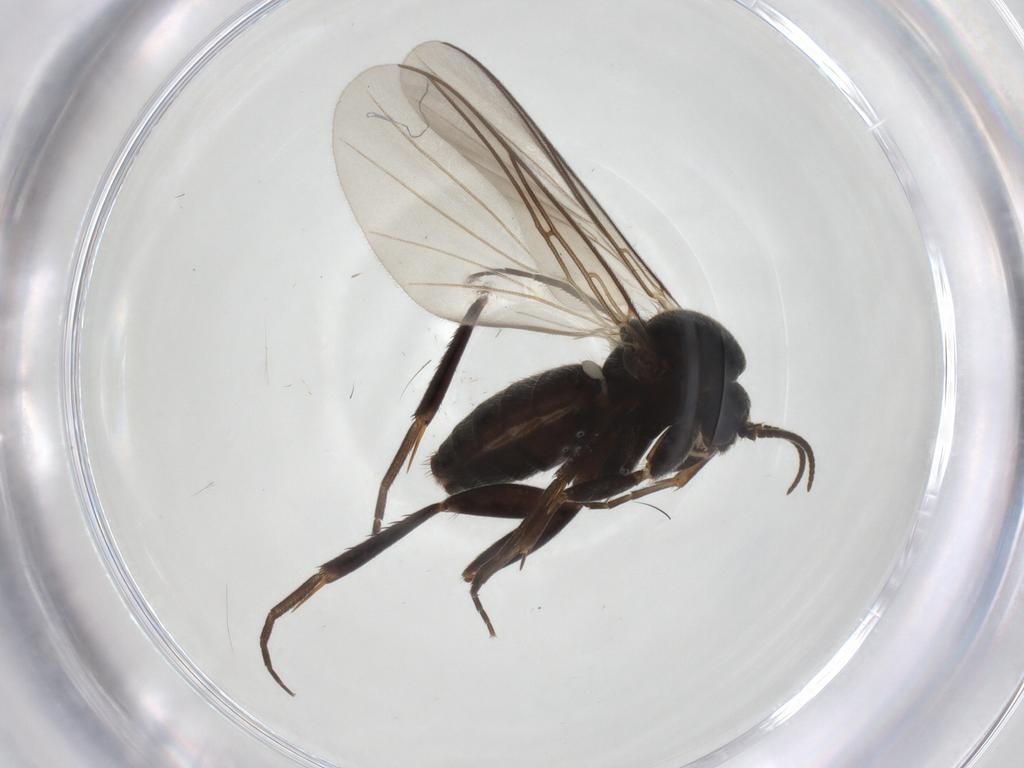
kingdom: Animalia
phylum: Arthropoda
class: Insecta
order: Diptera
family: Mycetophilidae
